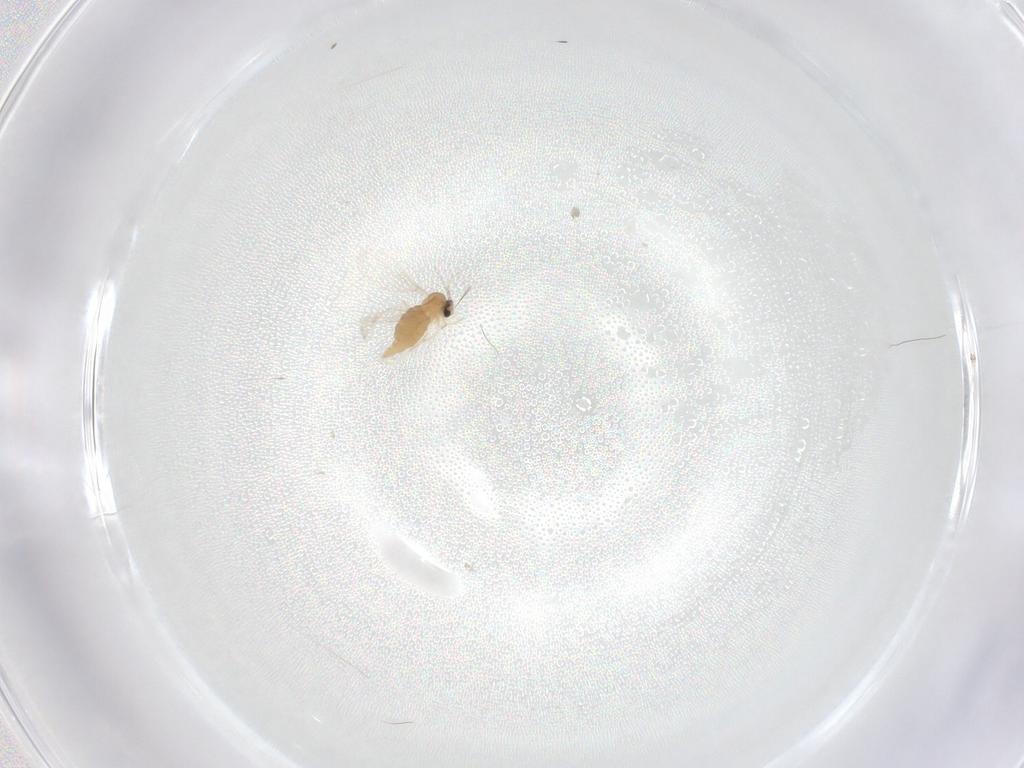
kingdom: Animalia
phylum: Arthropoda
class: Insecta
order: Diptera
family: Cecidomyiidae
